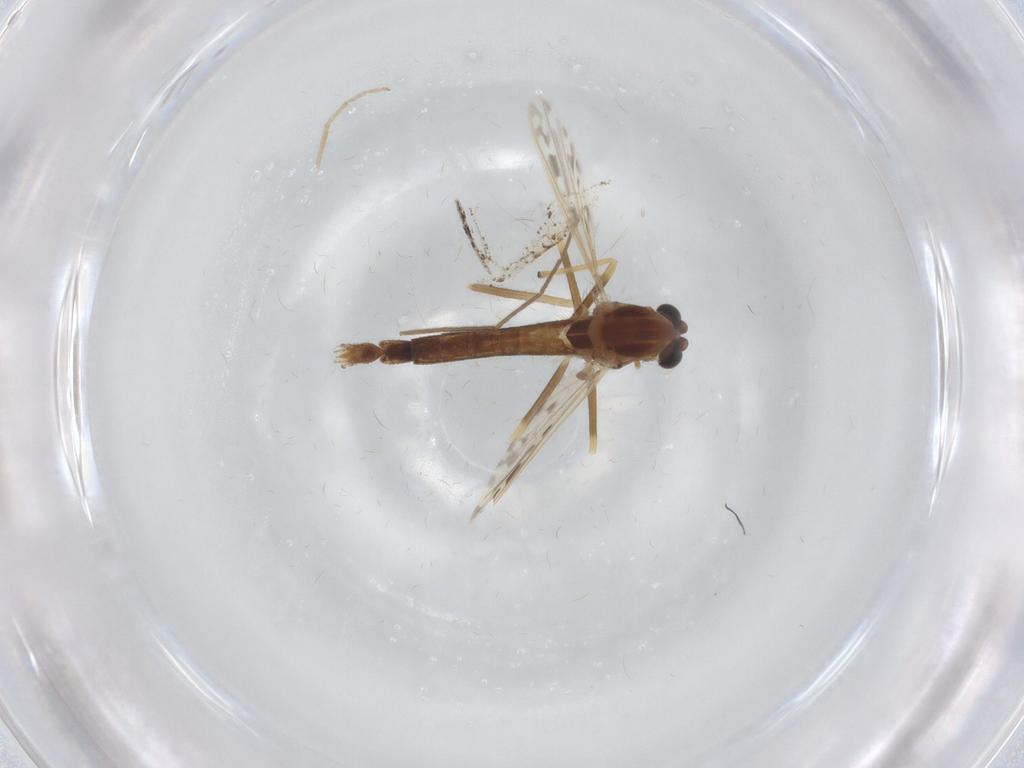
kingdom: Animalia
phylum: Arthropoda
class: Insecta
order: Diptera
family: Chironomidae
